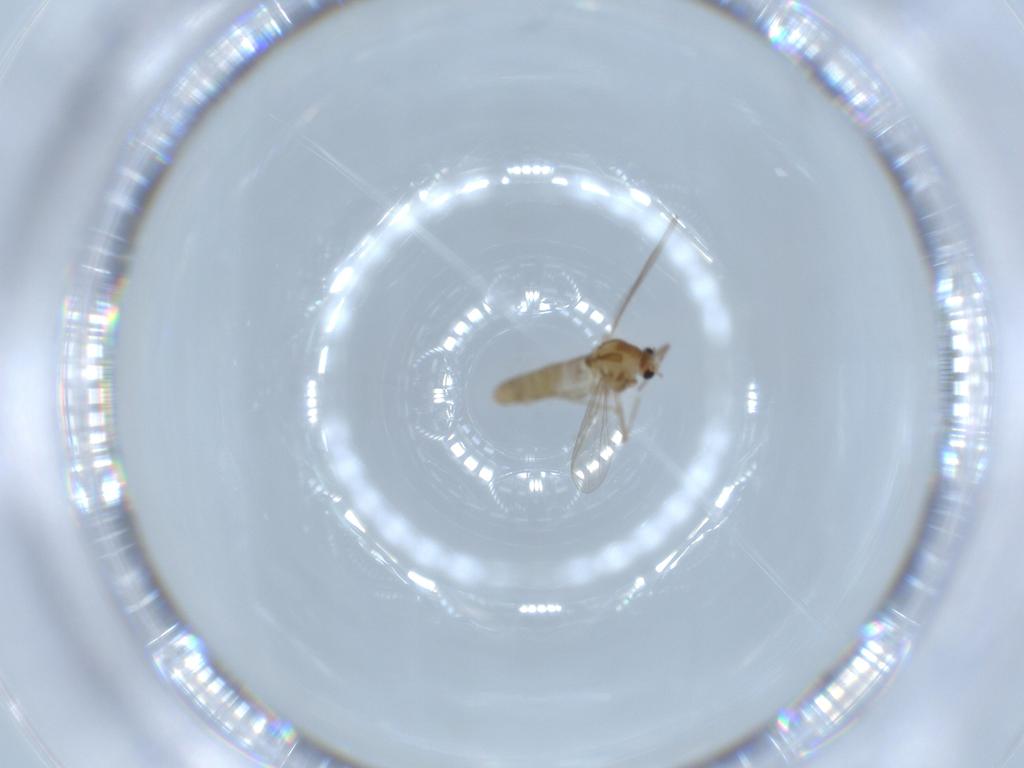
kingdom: Animalia
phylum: Arthropoda
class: Insecta
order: Diptera
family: Chironomidae
